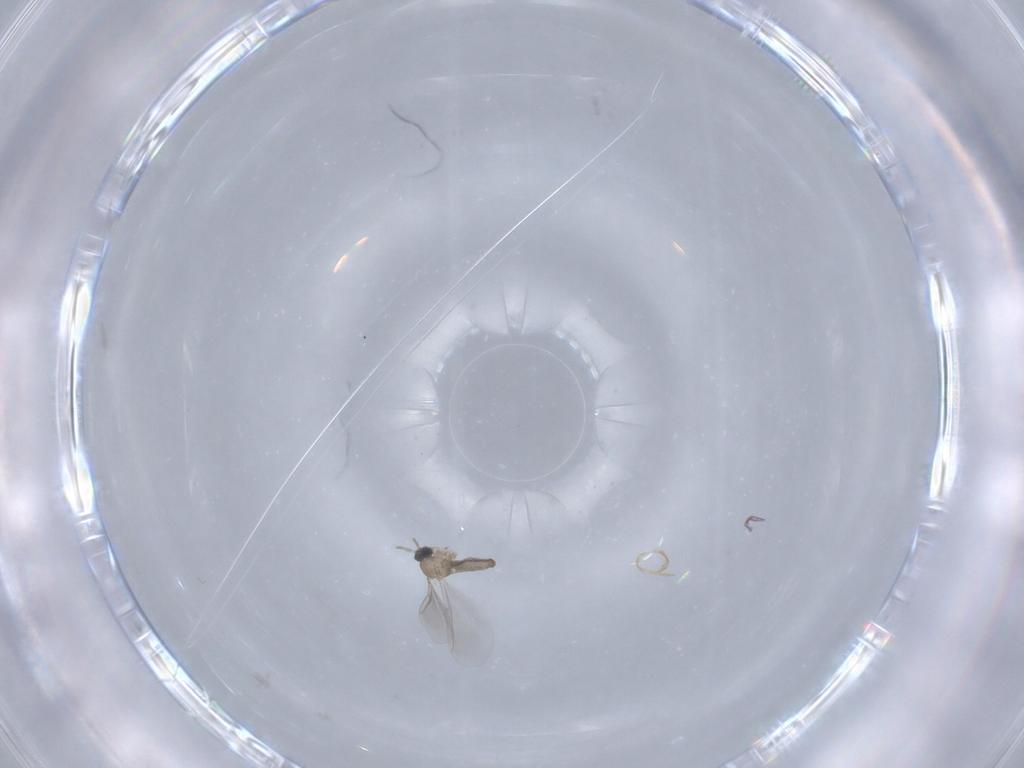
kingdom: Animalia
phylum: Arthropoda
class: Insecta
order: Diptera
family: Cecidomyiidae
